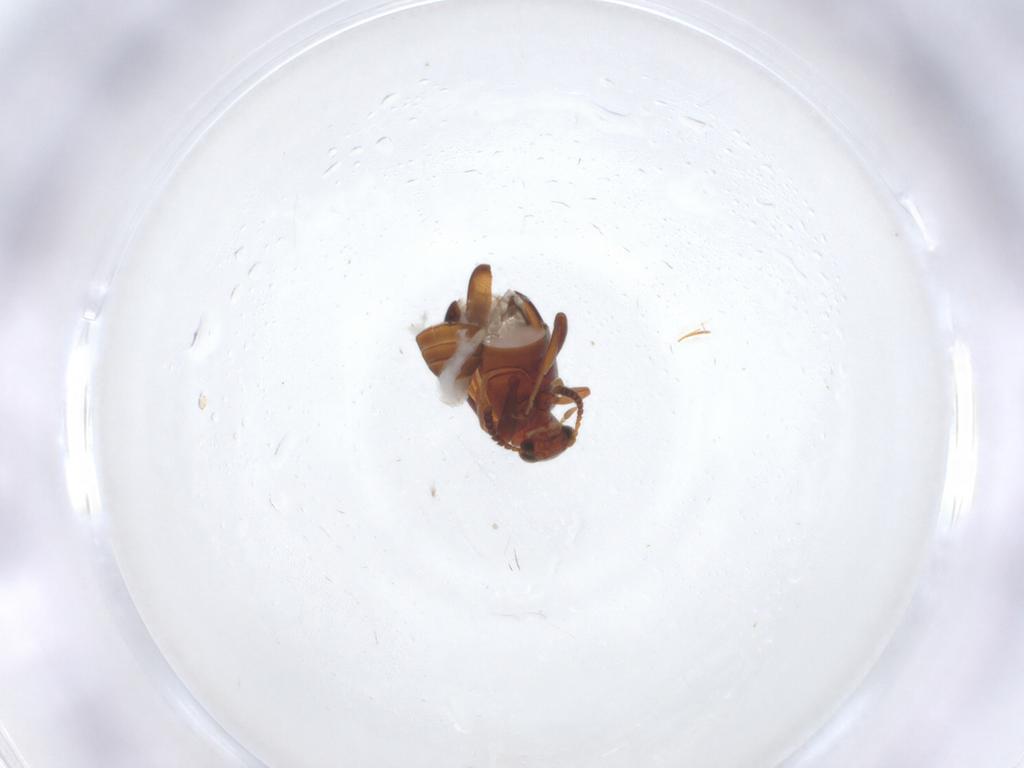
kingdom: Animalia
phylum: Arthropoda
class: Insecta
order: Coleoptera
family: Aderidae
